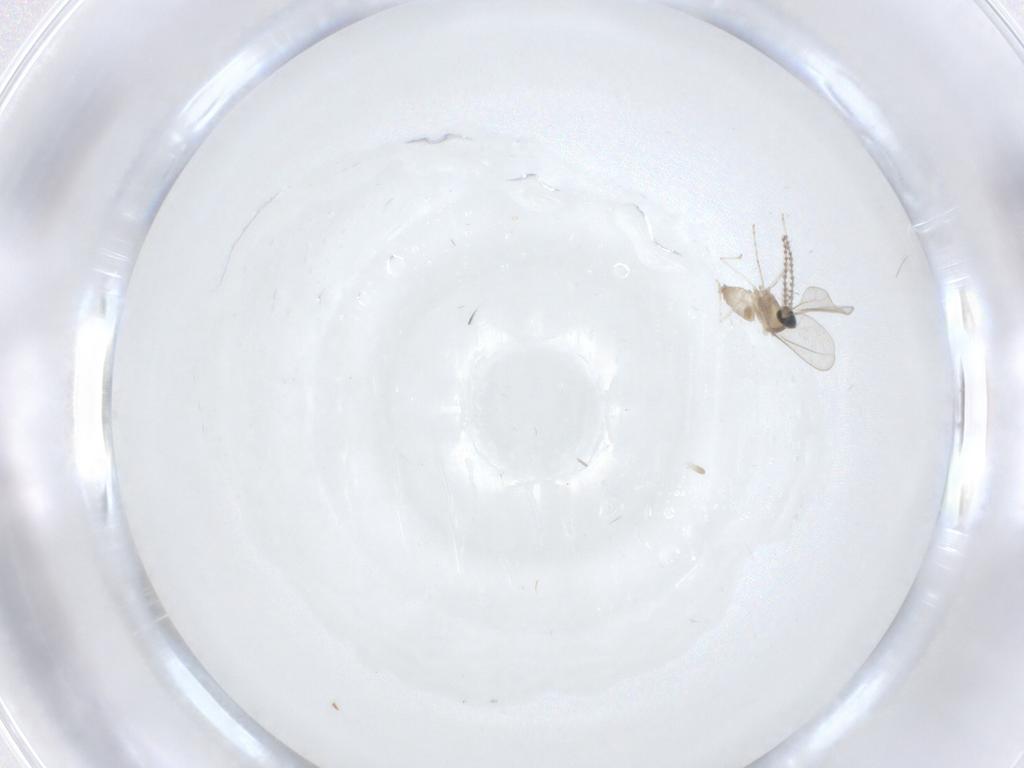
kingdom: Animalia
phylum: Arthropoda
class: Insecta
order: Diptera
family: Cecidomyiidae
